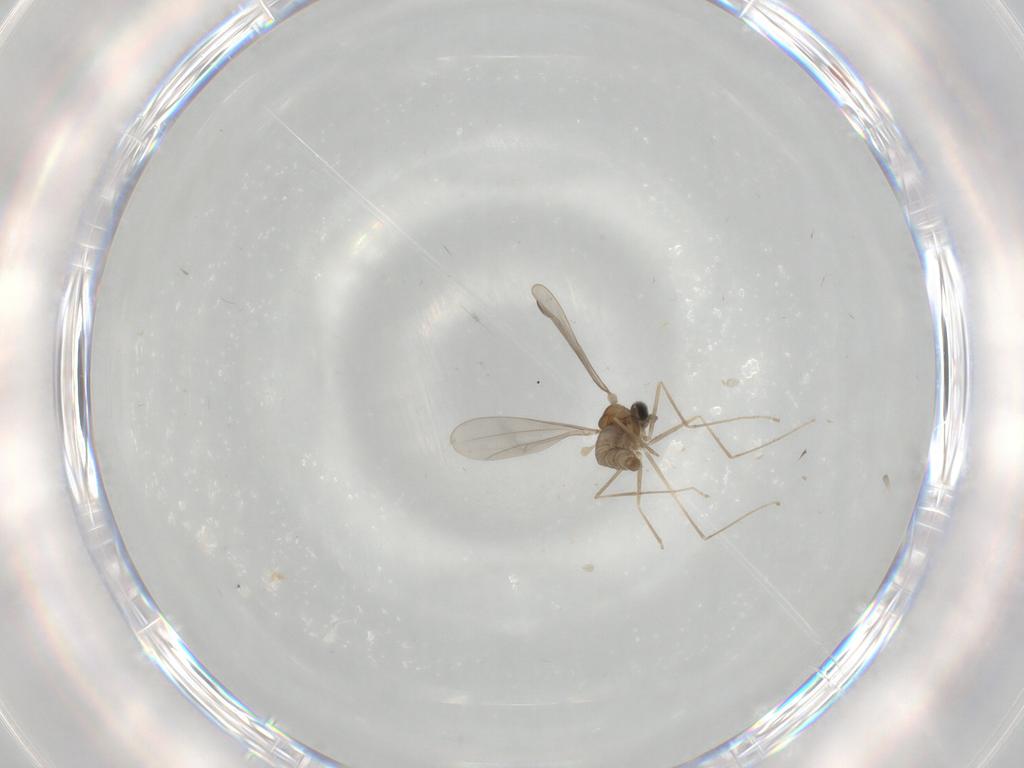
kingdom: Animalia
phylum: Arthropoda
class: Insecta
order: Diptera
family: Cecidomyiidae
